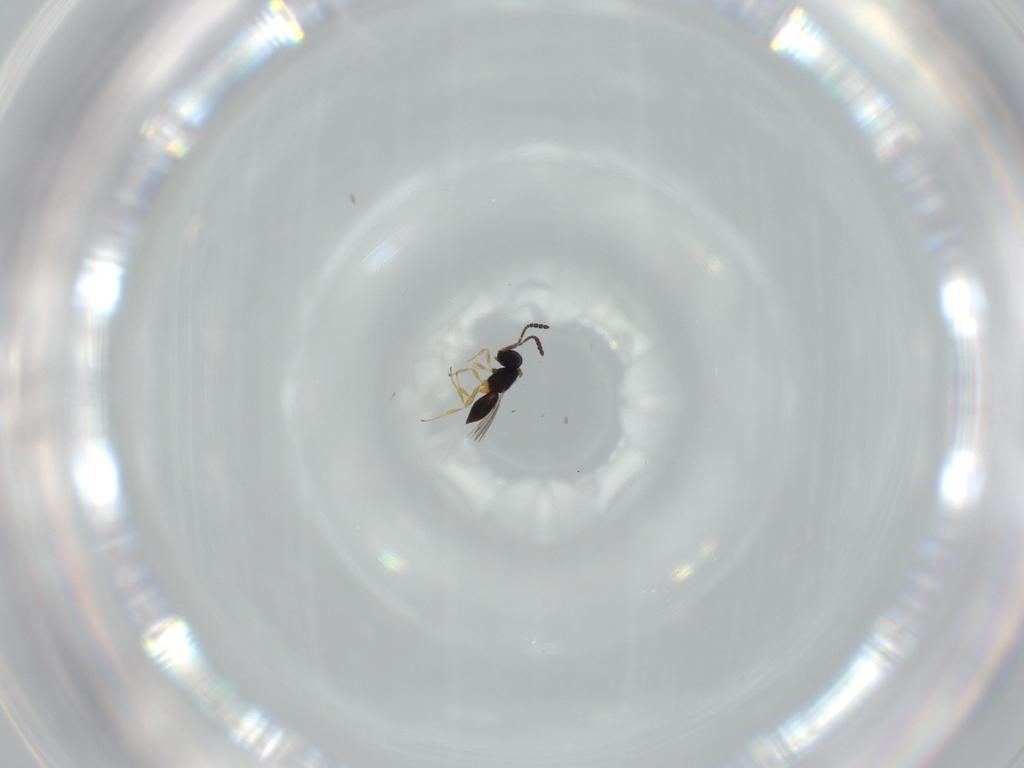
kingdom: Animalia
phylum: Arthropoda
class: Insecta
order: Hymenoptera
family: Scelionidae
